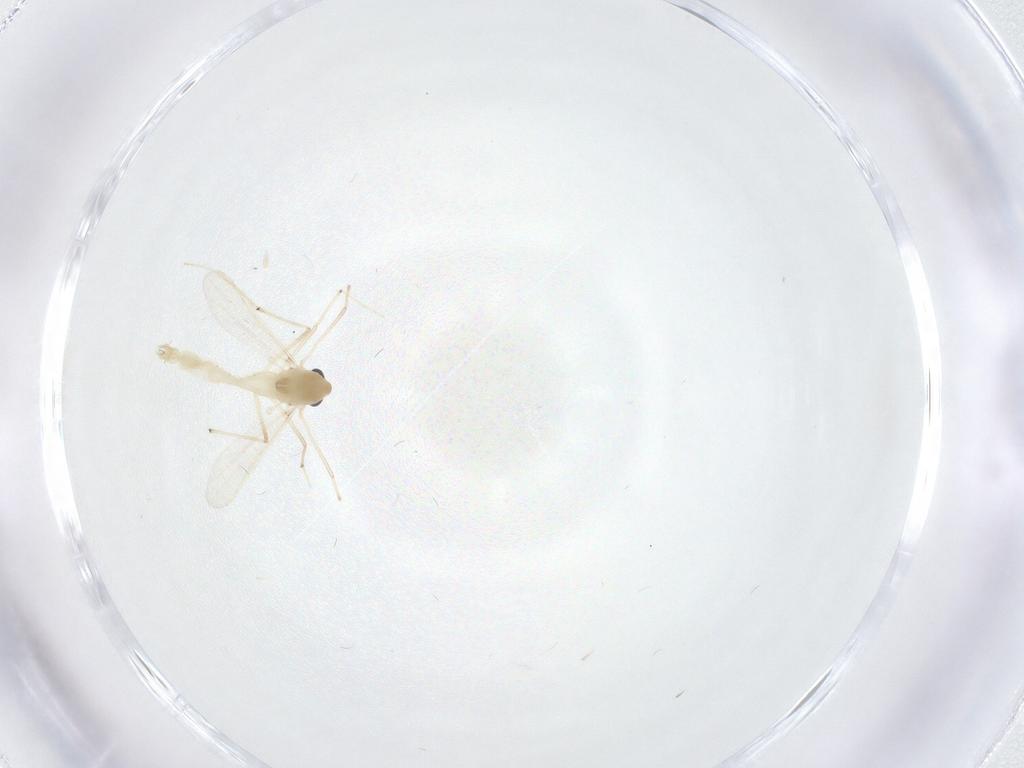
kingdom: Animalia
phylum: Arthropoda
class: Insecta
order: Diptera
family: Chironomidae
